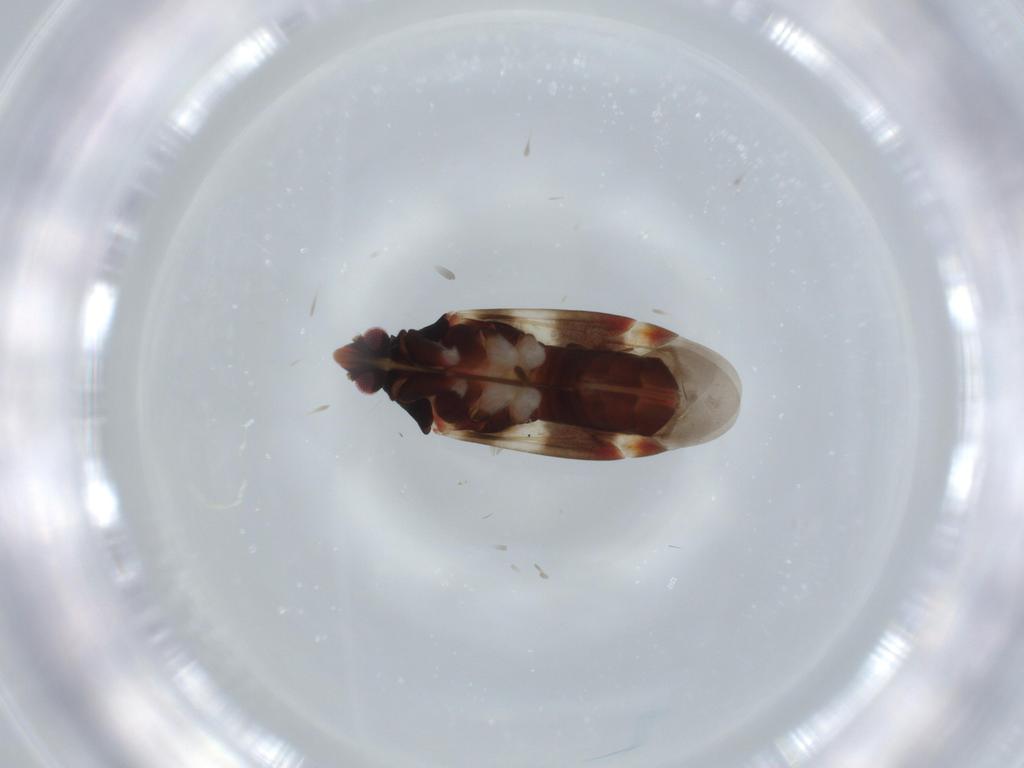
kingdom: Animalia
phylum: Arthropoda
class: Insecta
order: Hemiptera
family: Miridae
